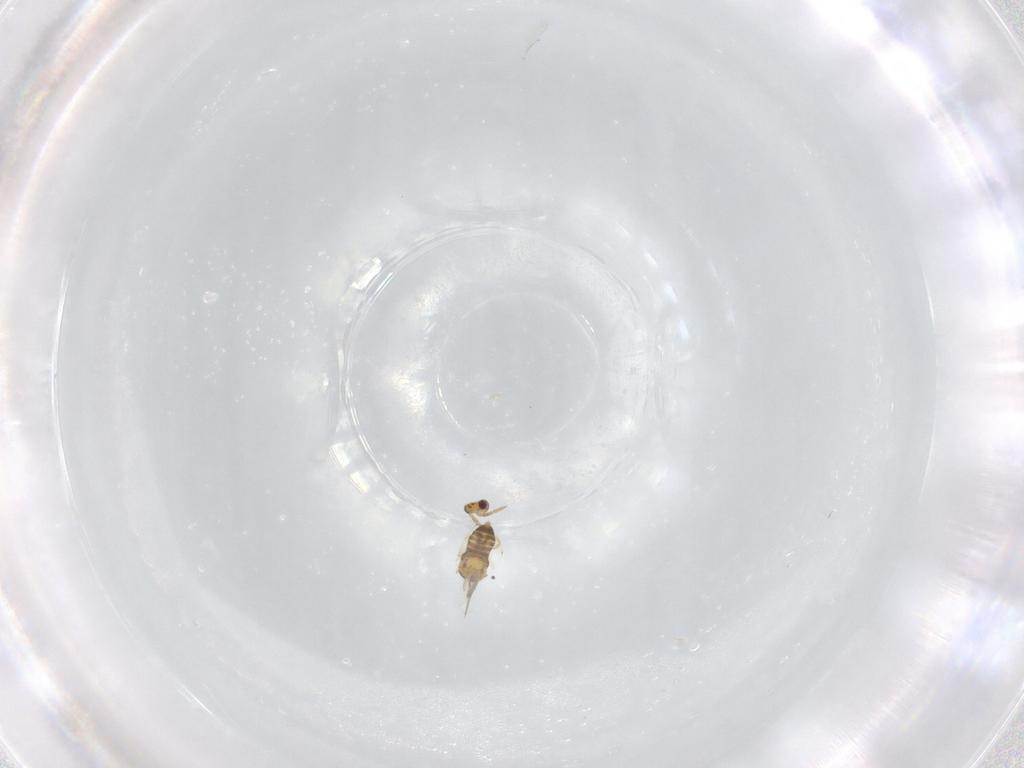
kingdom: Animalia
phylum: Arthropoda
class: Insecta
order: Hymenoptera
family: Aphelinidae
